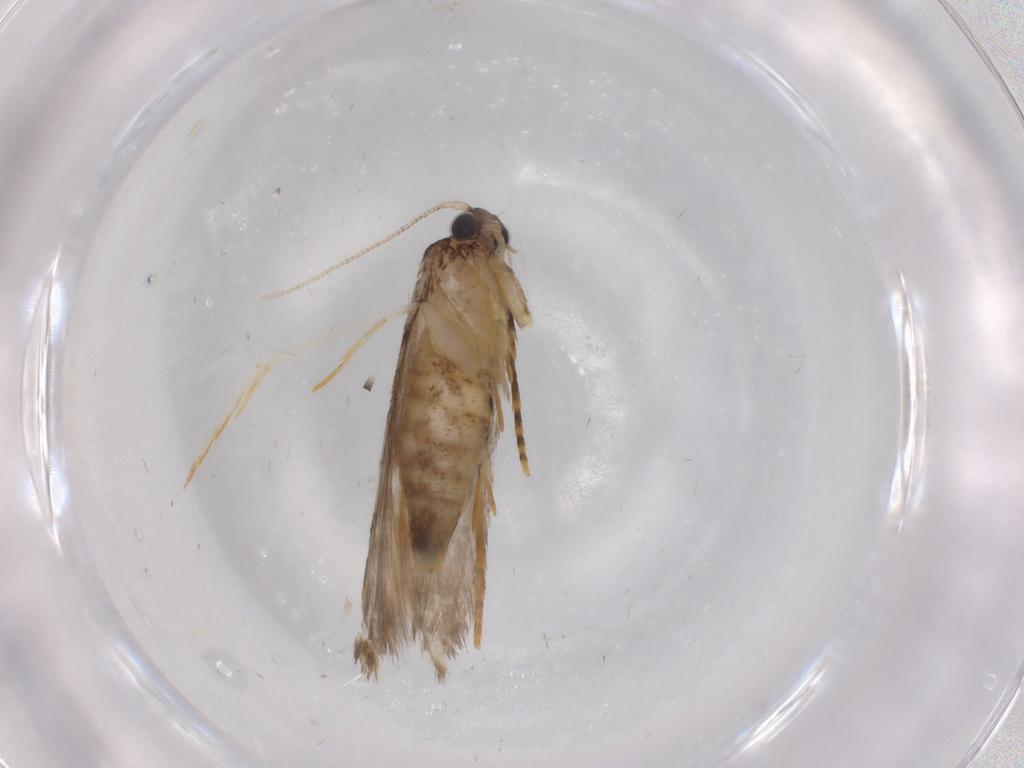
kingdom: Animalia
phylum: Arthropoda
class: Insecta
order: Lepidoptera
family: Tineidae
